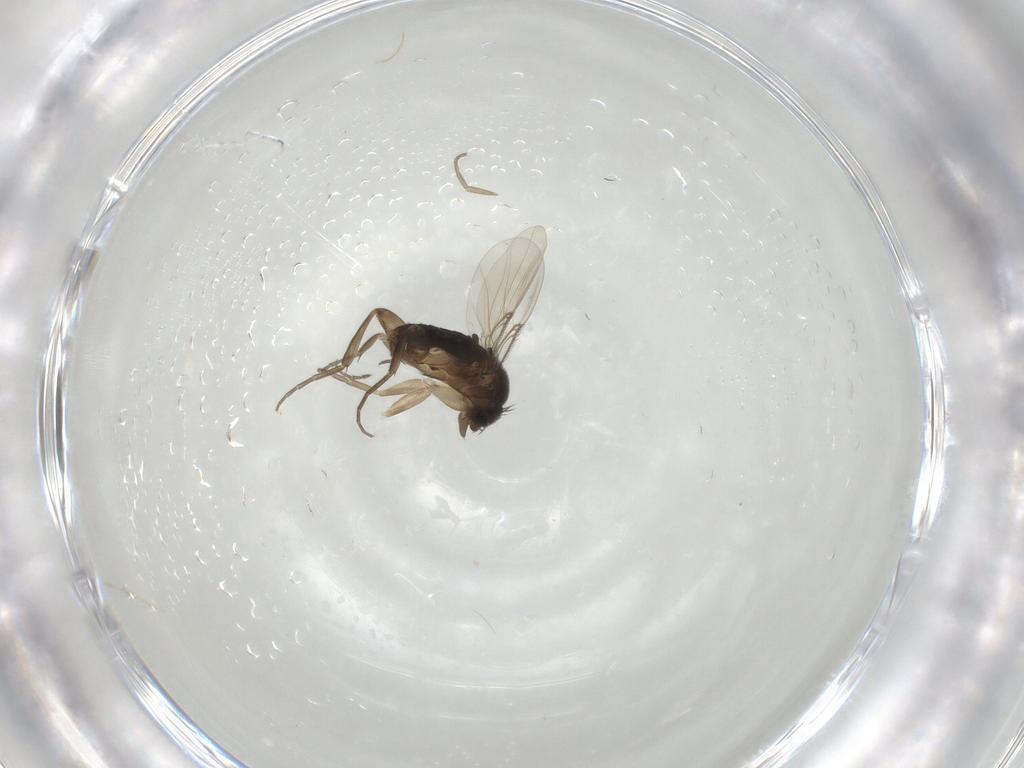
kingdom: Animalia
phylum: Arthropoda
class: Insecta
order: Diptera
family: Phoridae
